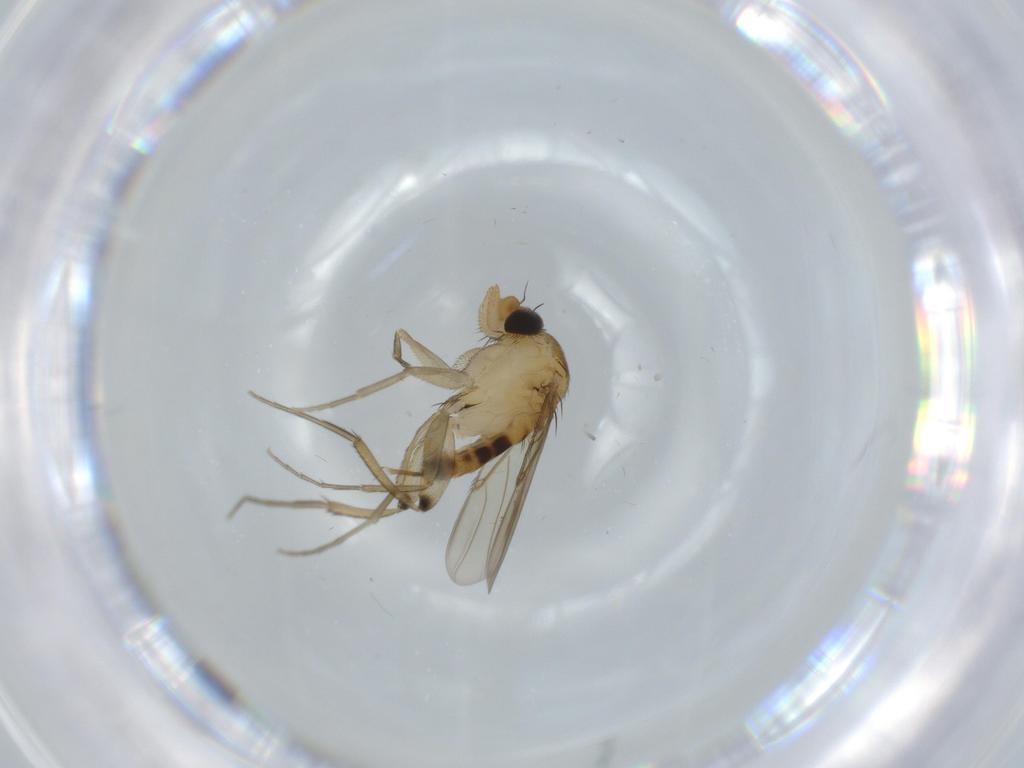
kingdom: Animalia
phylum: Arthropoda
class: Insecta
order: Diptera
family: Phoridae
